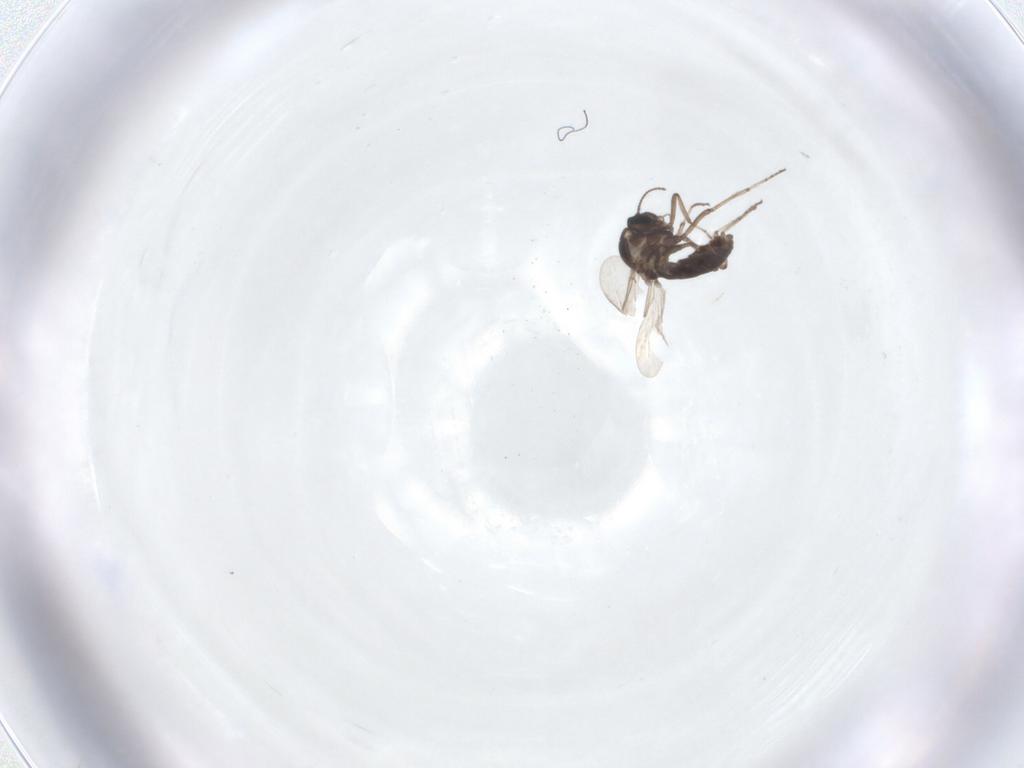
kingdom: Animalia
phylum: Arthropoda
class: Insecta
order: Diptera
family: Ceratopogonidae
